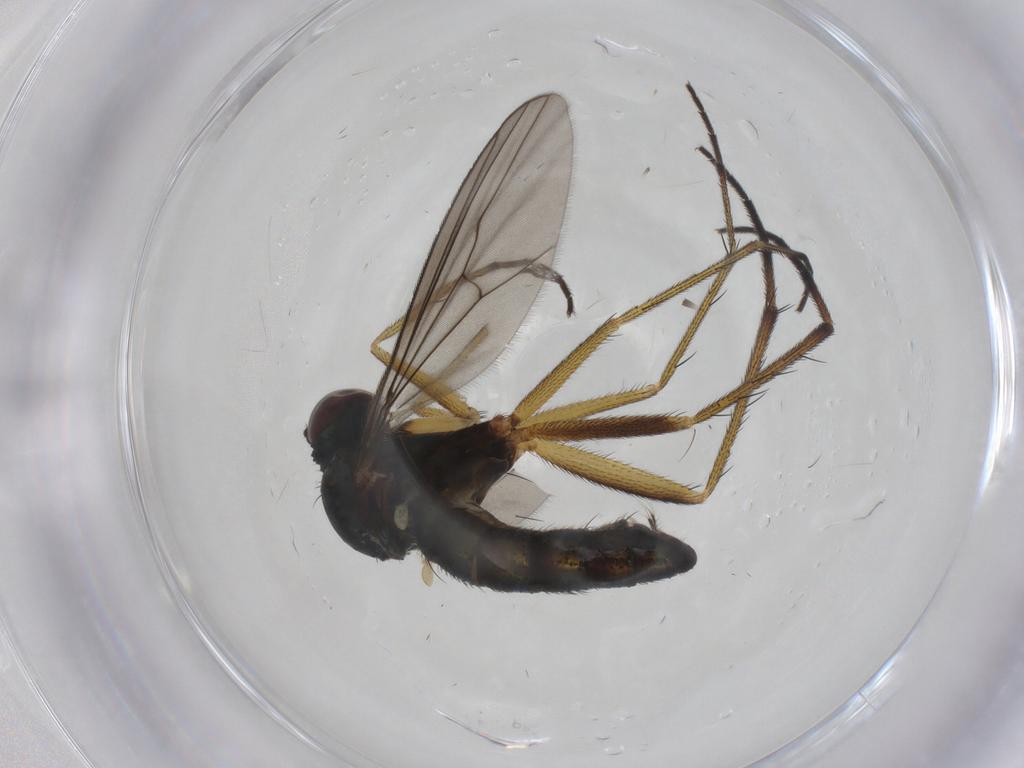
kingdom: Animalia
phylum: Arthropoda
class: Insecta
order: Diptera
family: Dolichopodidae
